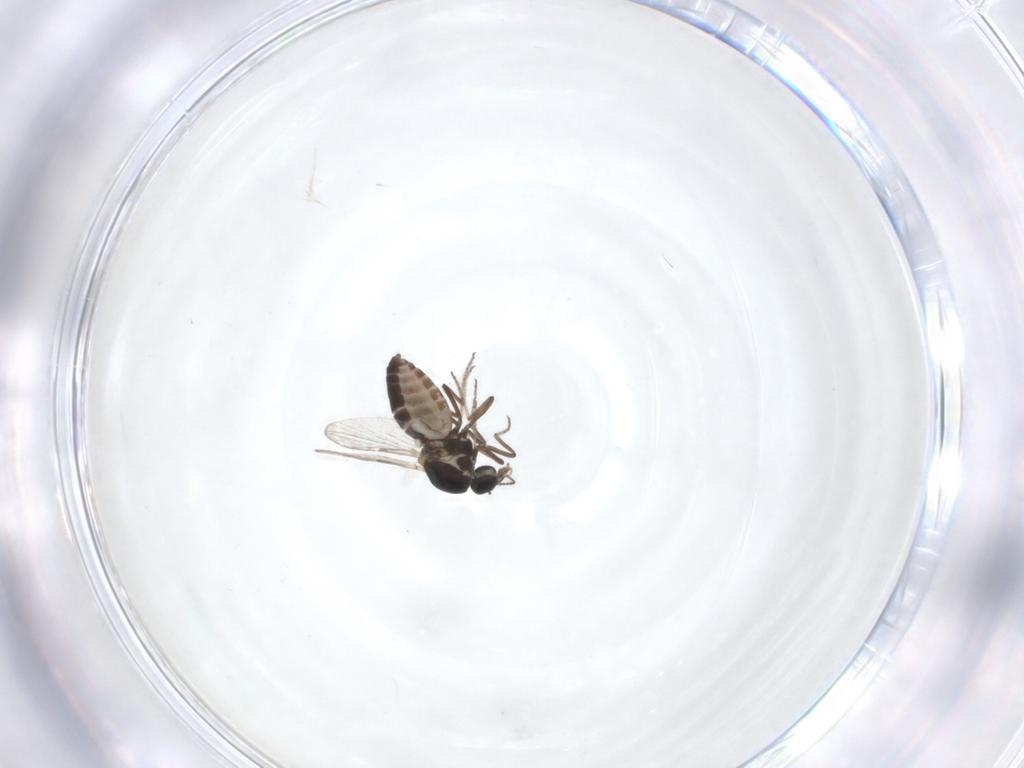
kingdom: Animalia
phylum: Arthropoda
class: Insecta
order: Diptera
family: Ceratopogonidae
